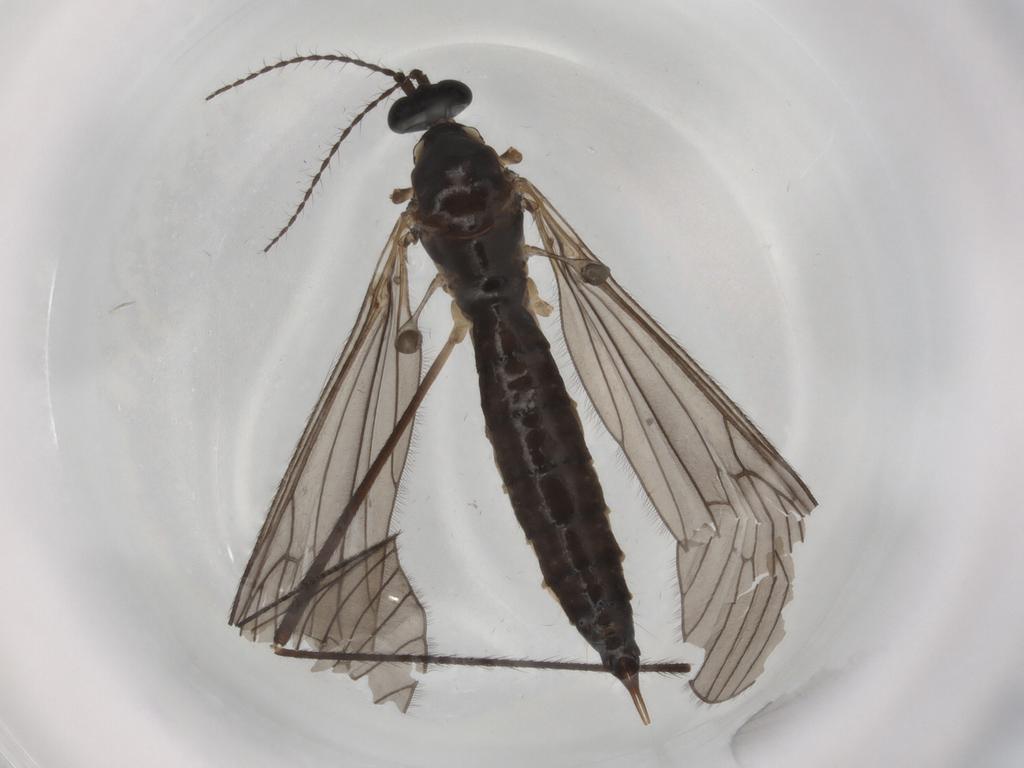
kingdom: Animalia
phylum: Arthropoda
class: Insecta
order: Diptera
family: Limoniidae
